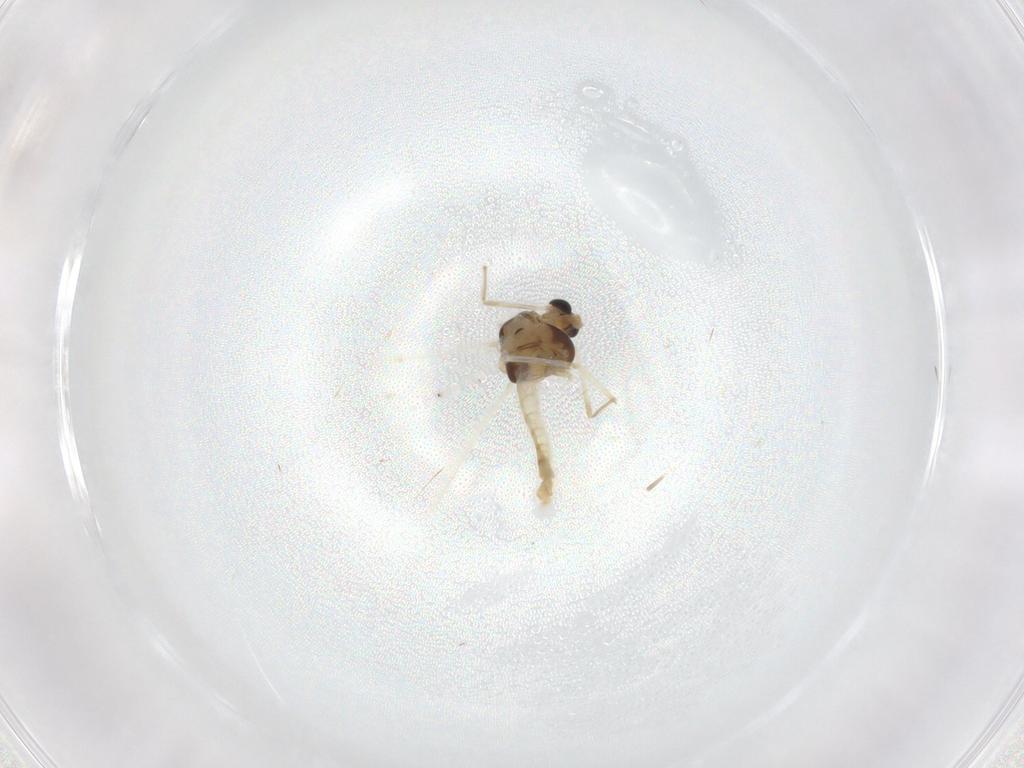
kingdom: Animalia
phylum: Arthropoda
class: Insecta
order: Diptera
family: Chironomidae
